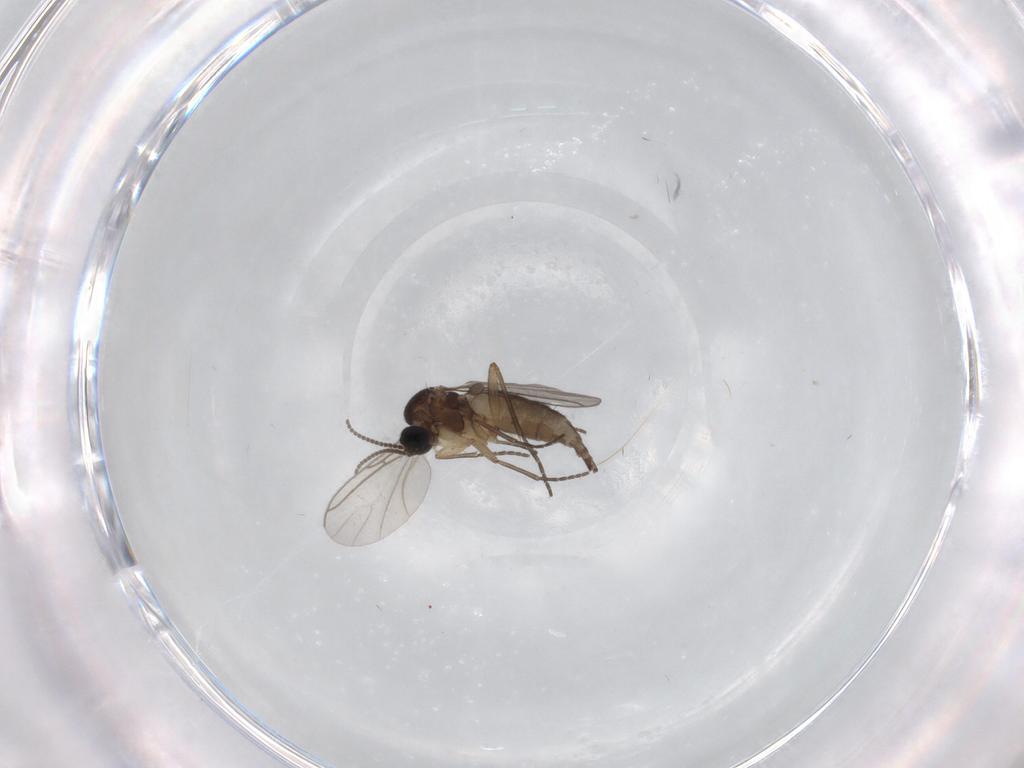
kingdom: Animalia
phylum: Arthropoda
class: Insecta
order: Diptera
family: Sciaridae
